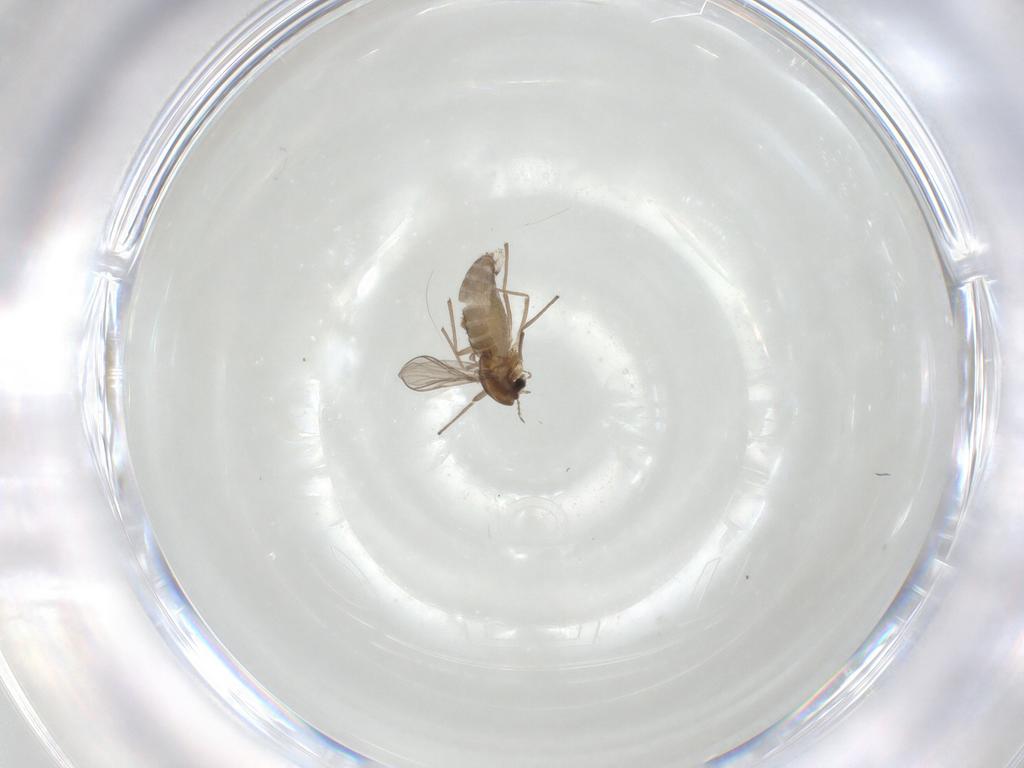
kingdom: Animalia
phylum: Arthropoda
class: Insecta
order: Diptera
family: Chironomidae
